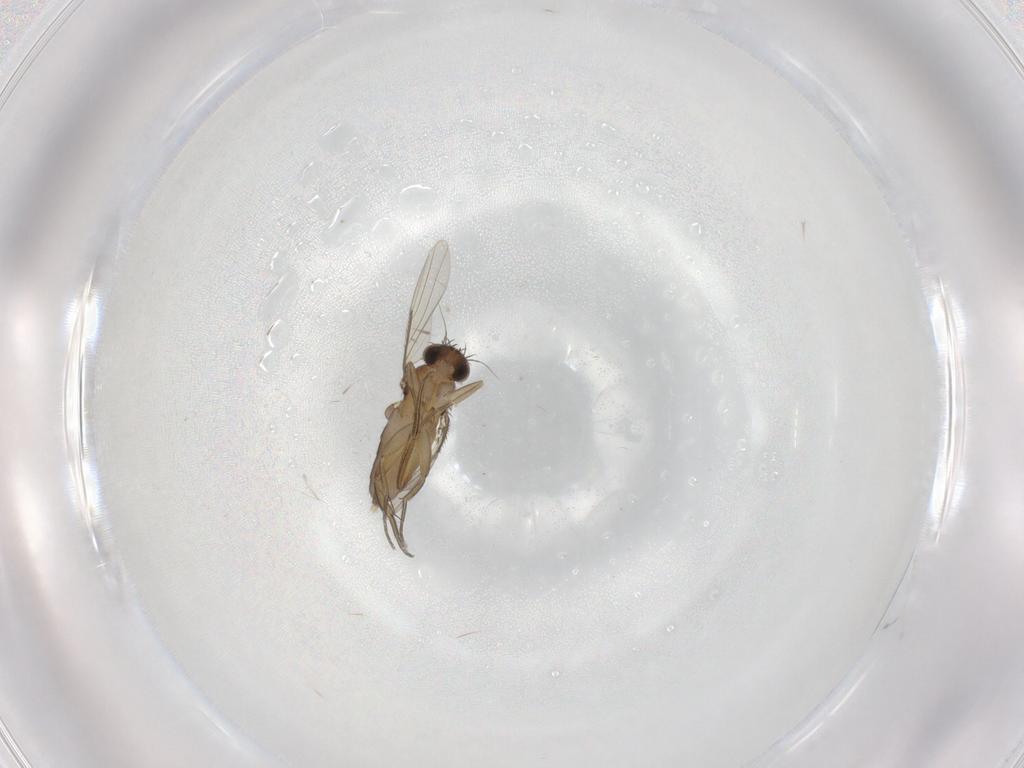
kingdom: Animalia
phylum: Arthropoda
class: Insecta
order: Diptera
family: Phoridae
